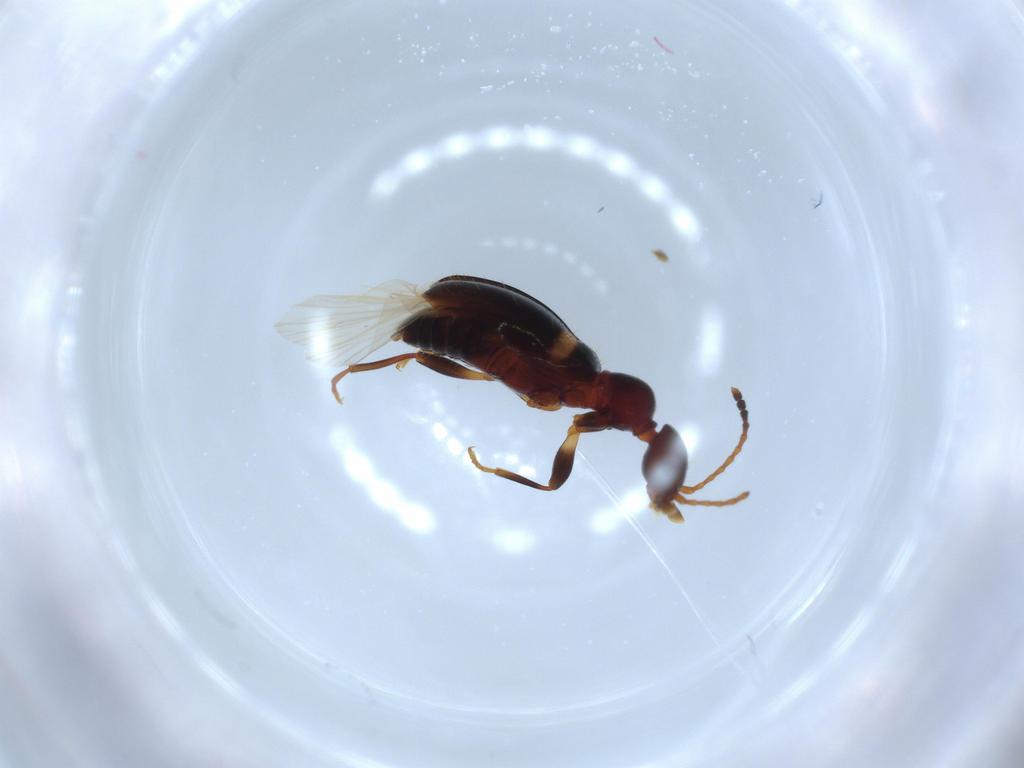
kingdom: Animalia
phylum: Arthropoda
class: Insecta
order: Coleoptera
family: Anthicidae
